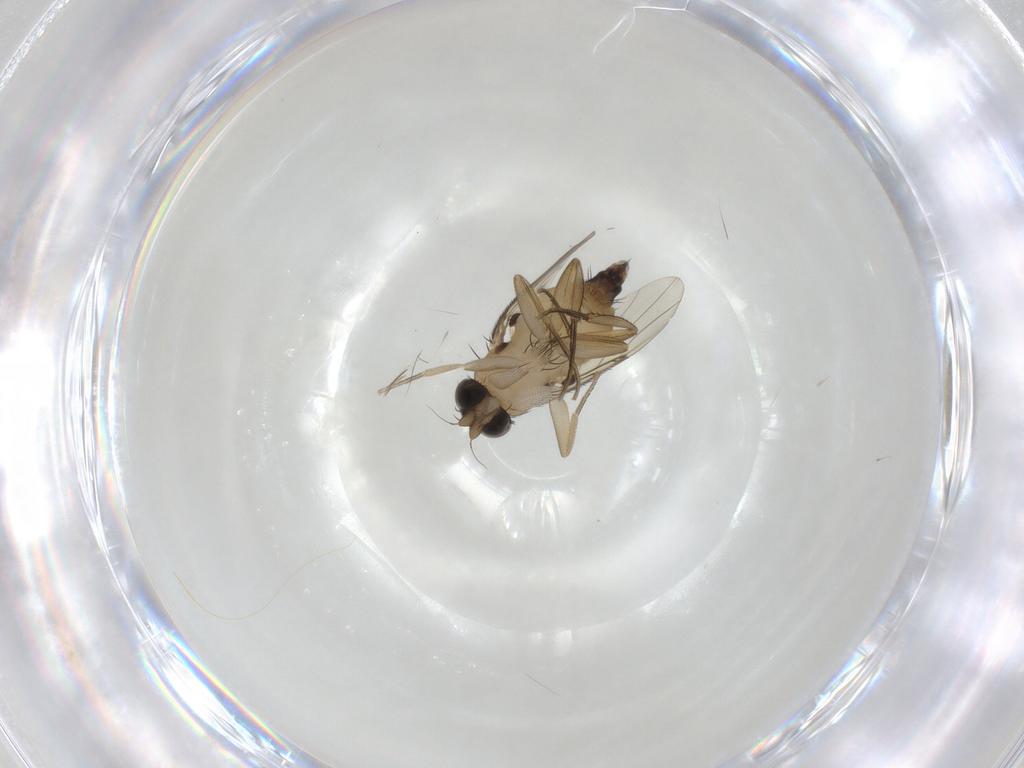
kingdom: Animalia
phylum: Arthropoda
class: Insecta
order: Diptera
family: Phoridae
